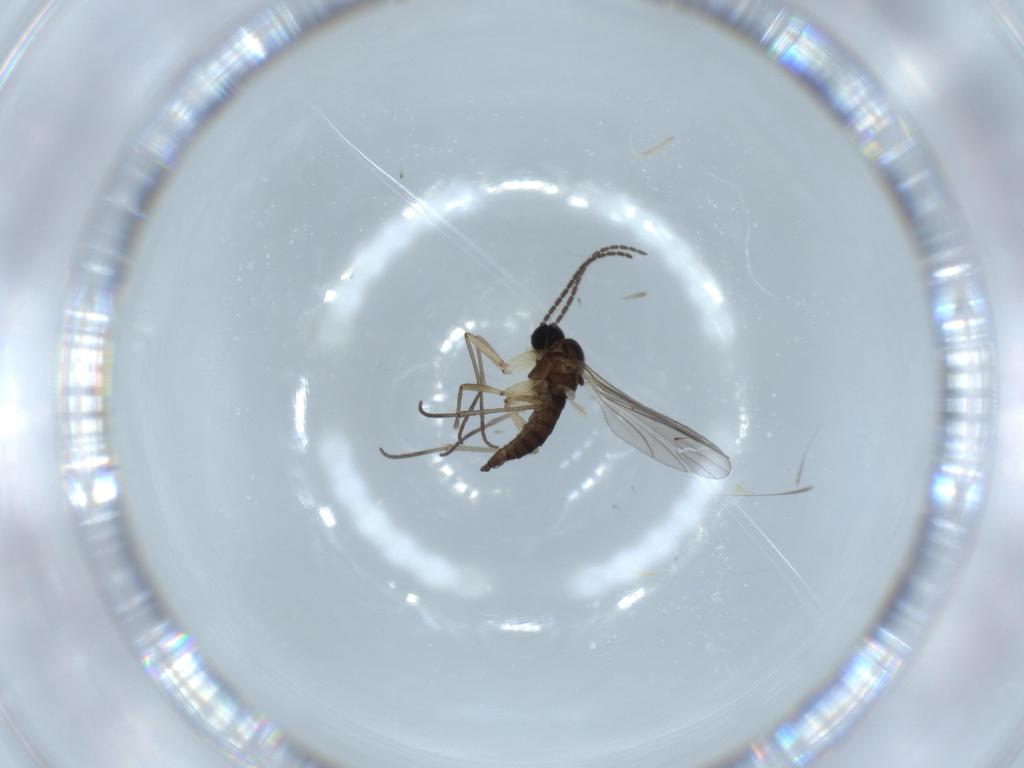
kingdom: Animalia
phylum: Arthropoda
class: Insecta
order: Diptera
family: Sciaridae
